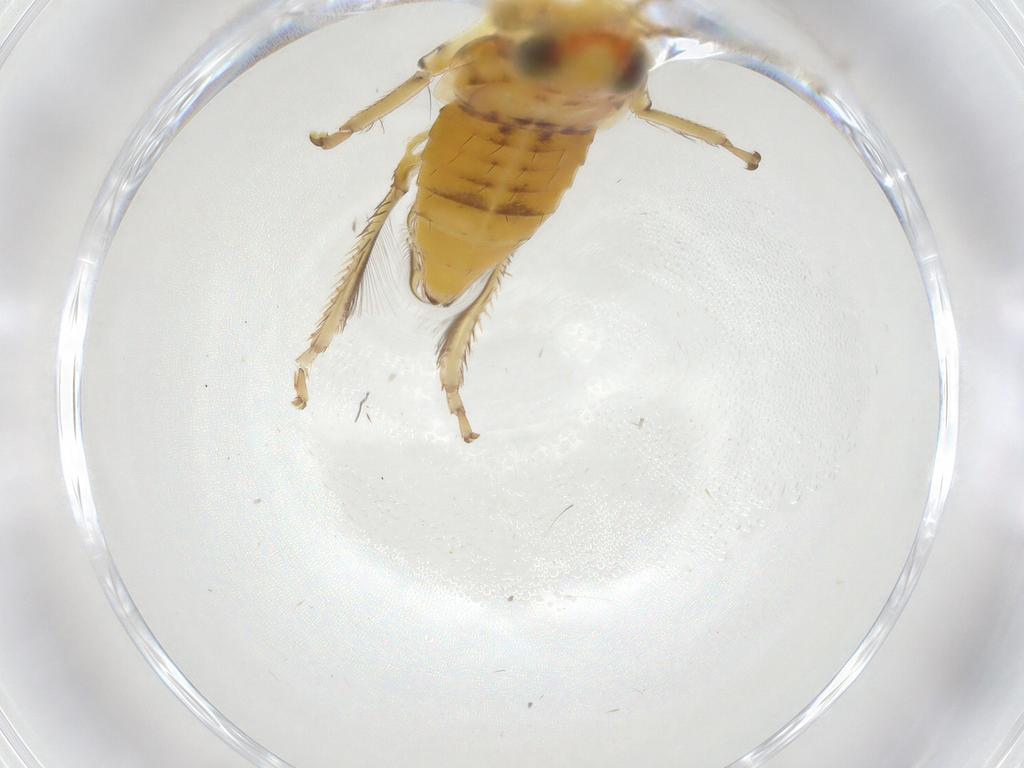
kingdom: Animalia
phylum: Arthropoda
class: Insecta
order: Hemiptera
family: Cicadellidae
